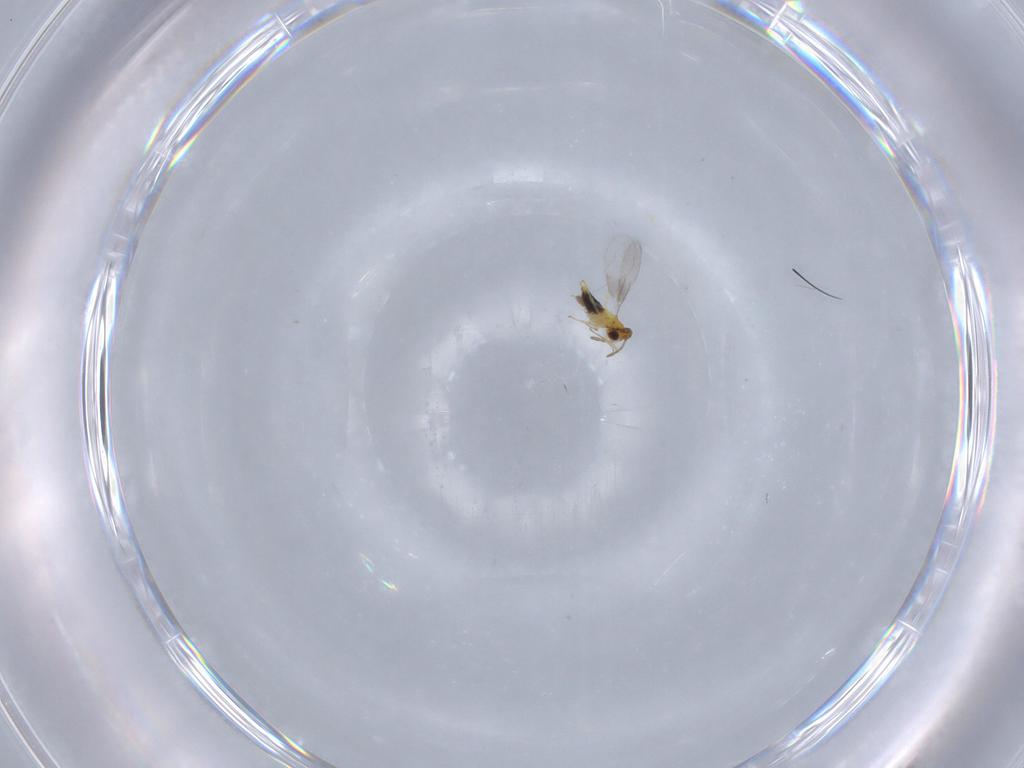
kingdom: Animalia
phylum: Arthropoda
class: Insecta
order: Hymenoptera
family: Aphelinidae
